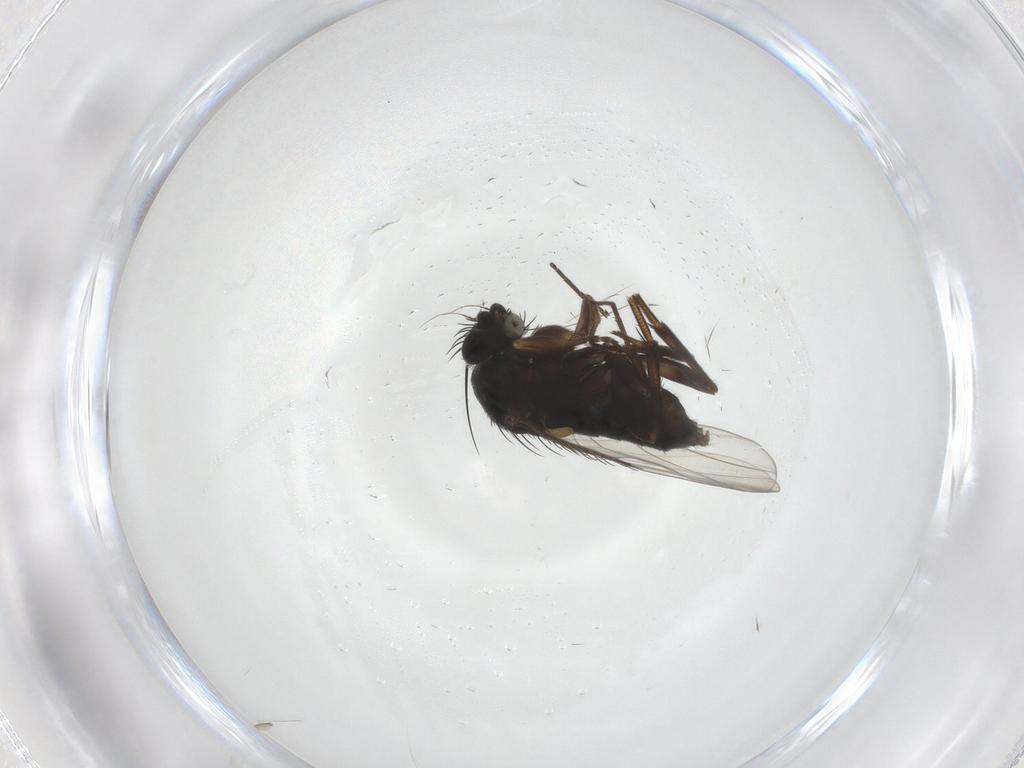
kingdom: Animalia
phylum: Arthropoda
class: Insecta
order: Diptera
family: Phoridae
